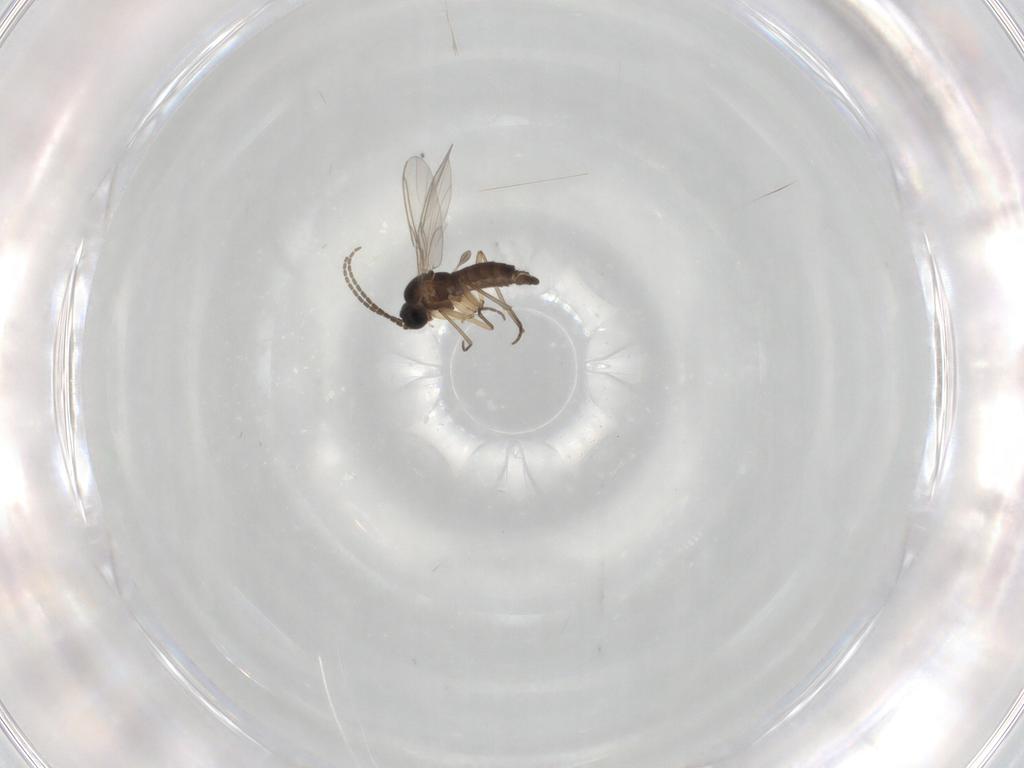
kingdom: Animalia
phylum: Arthropoda
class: Insecta
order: Diptera
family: Sciaridae
